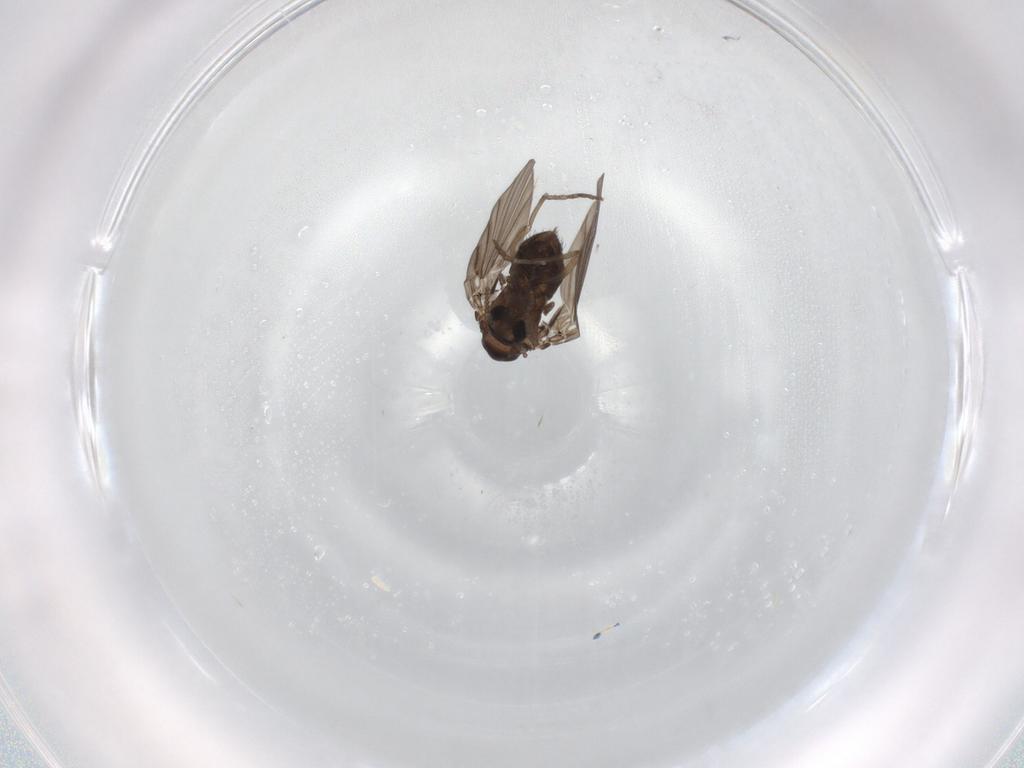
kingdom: Animalia
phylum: Arthropoda
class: Insecta
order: Diptera
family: Psychodidae
